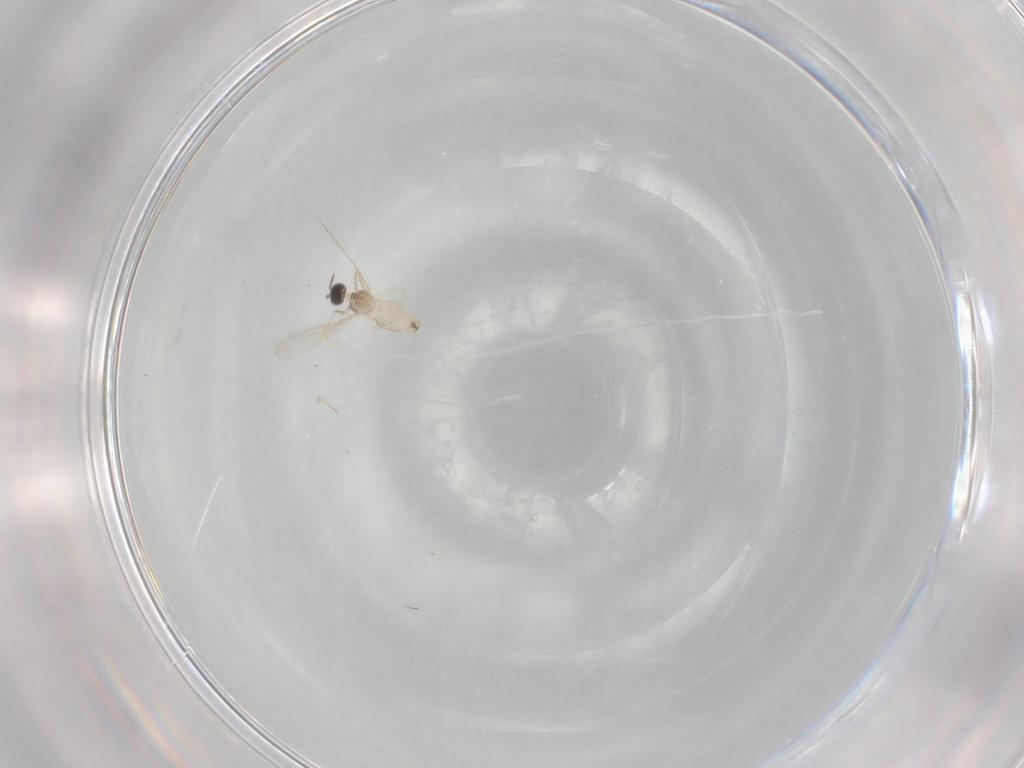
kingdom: Animalia
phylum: Arthropoda
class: Insecta
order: Diptera
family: Cecidomyiidae
